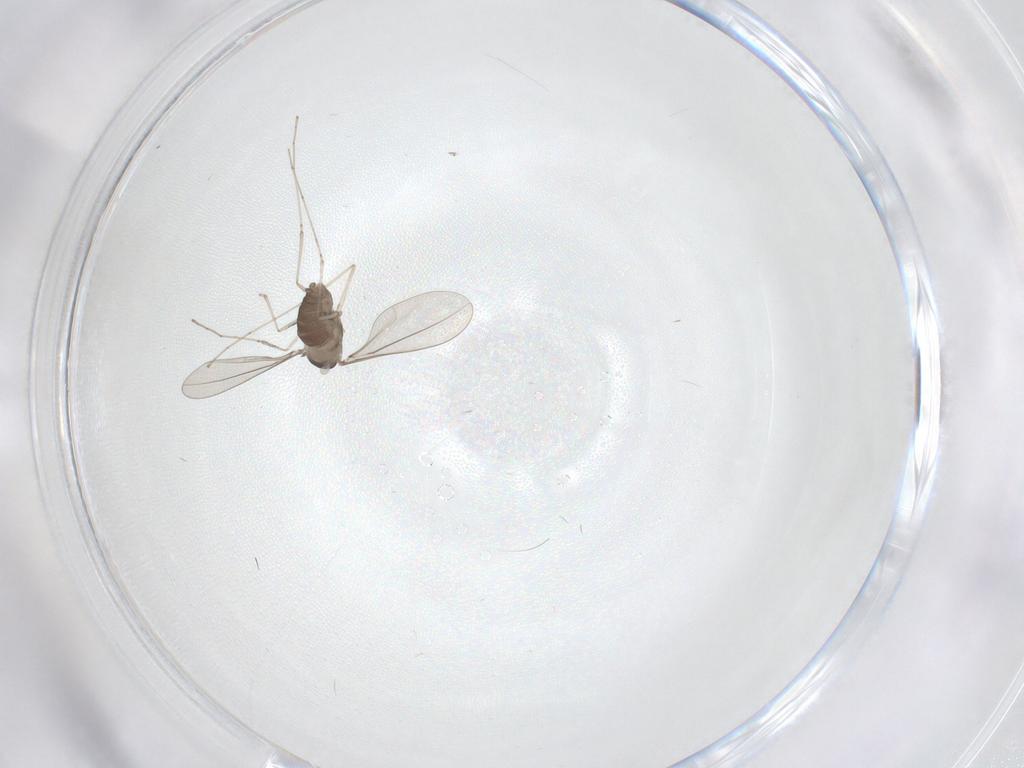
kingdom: Animalia
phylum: Arthropoda
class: Insecta
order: Diptera
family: Cecidomyiidae
